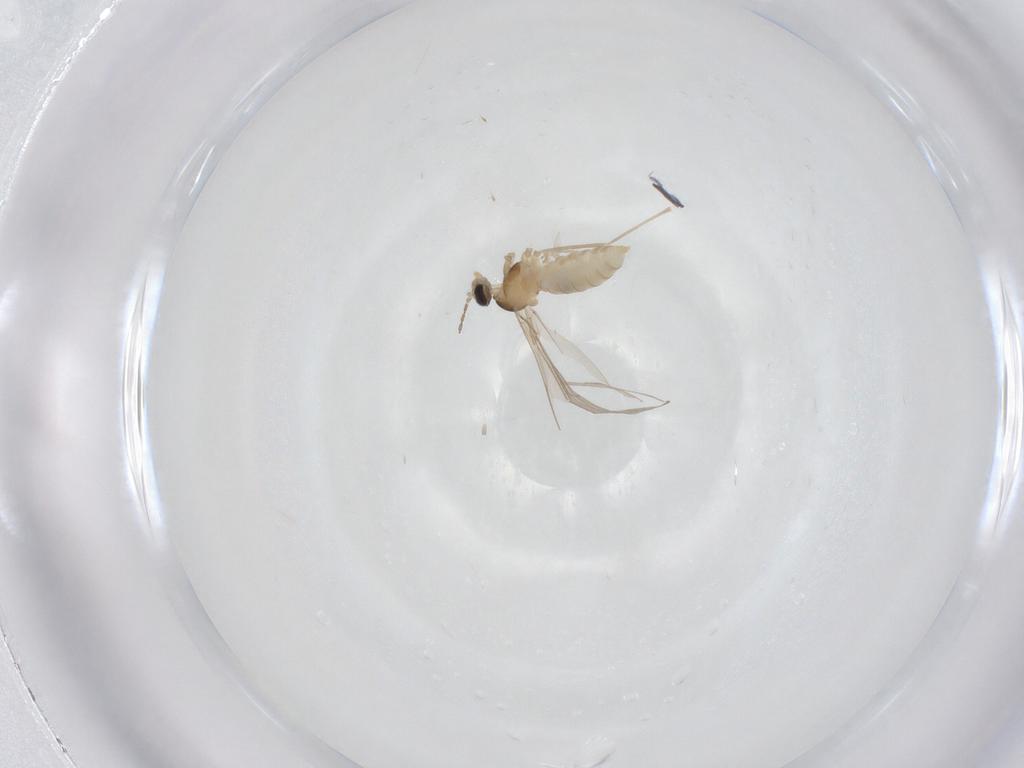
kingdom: Animalia
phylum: Arthropoda
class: Insecta
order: Diptera
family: Cecidomyiidae
